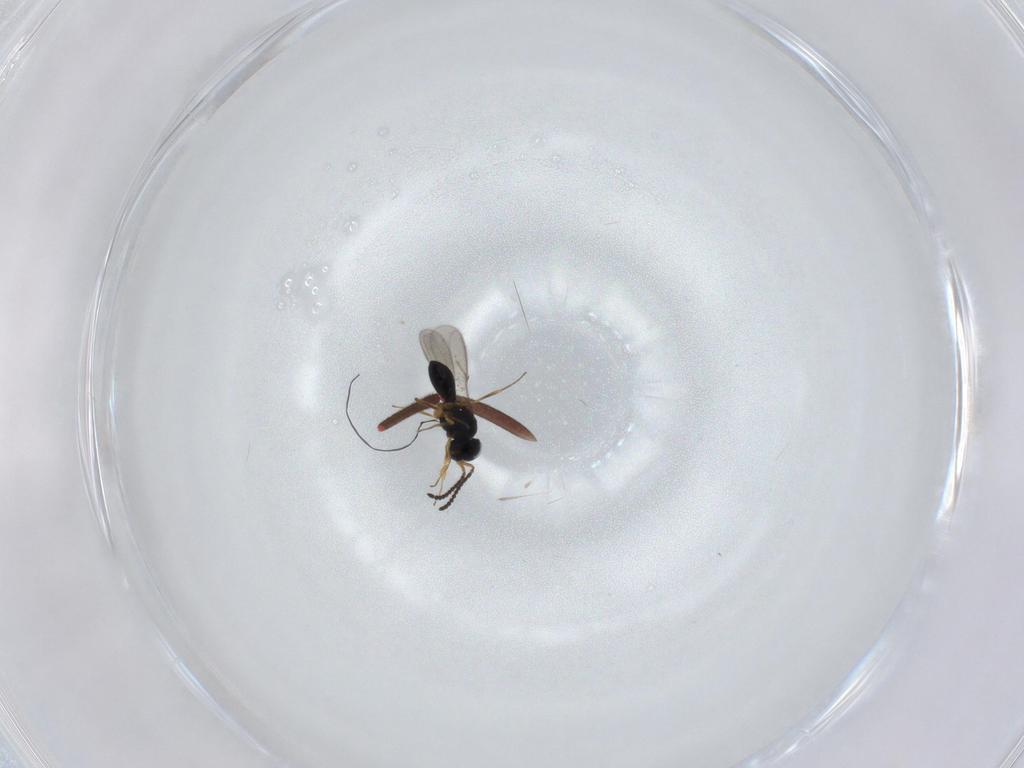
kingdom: Animalia
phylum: Arthropoda
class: Insecta
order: Hymenoptera
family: Scelionidae
